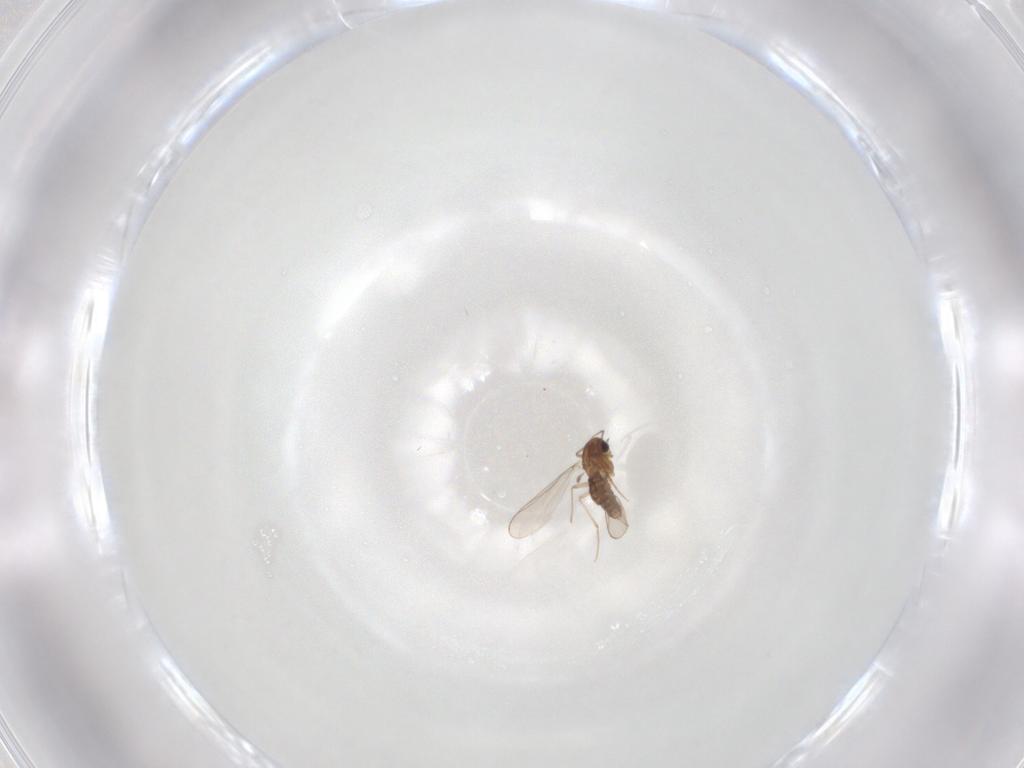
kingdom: Animalia
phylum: Arthropoda
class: Insecta
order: Diptera
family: Chironomidae
